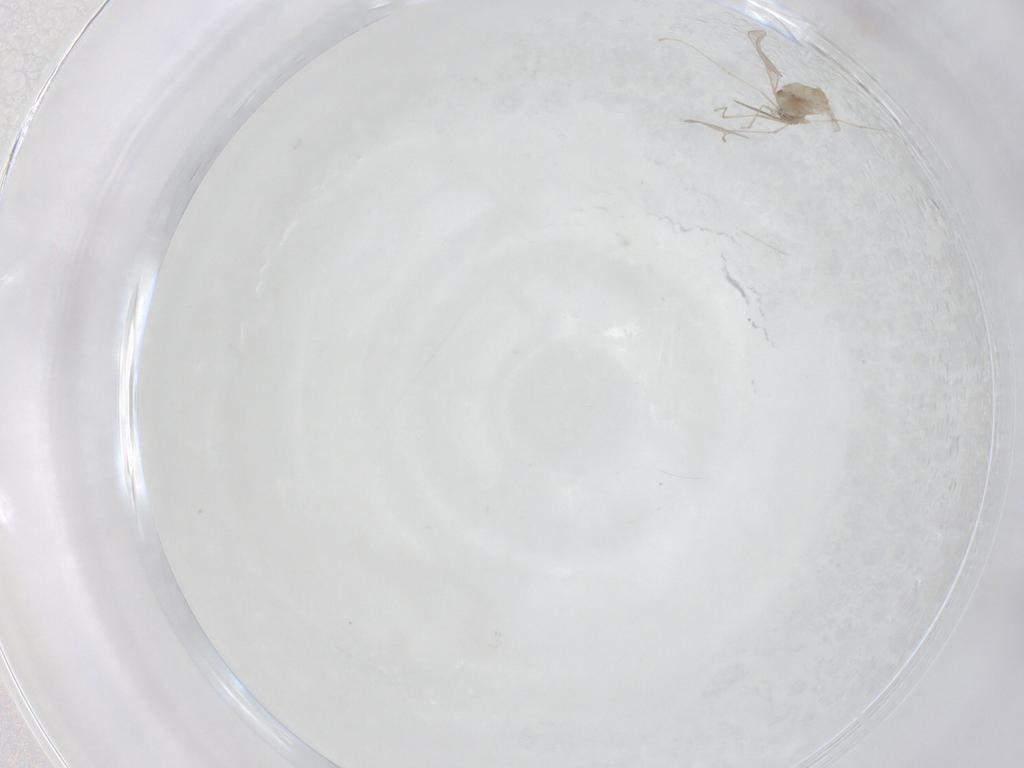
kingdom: Animalia
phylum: Arthropoda
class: Insecta
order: Diptera
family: Cecidomyiidae
